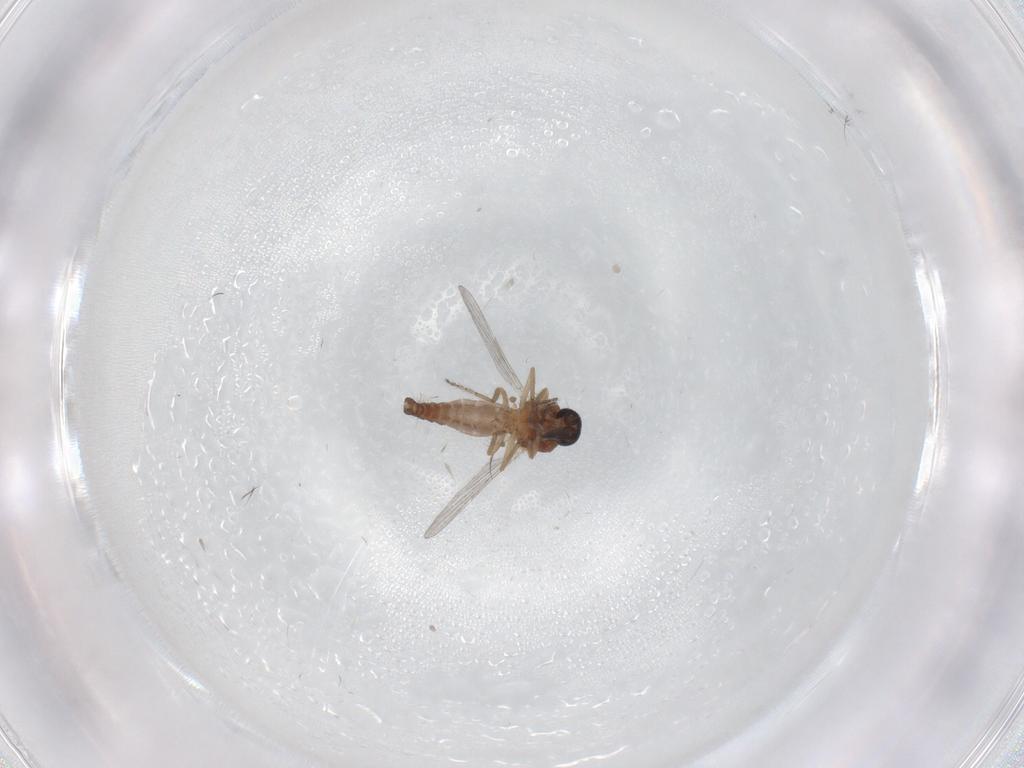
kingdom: Animalia
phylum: Arthropoda
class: Insecta
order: Diptera
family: Ceratopogonidae
